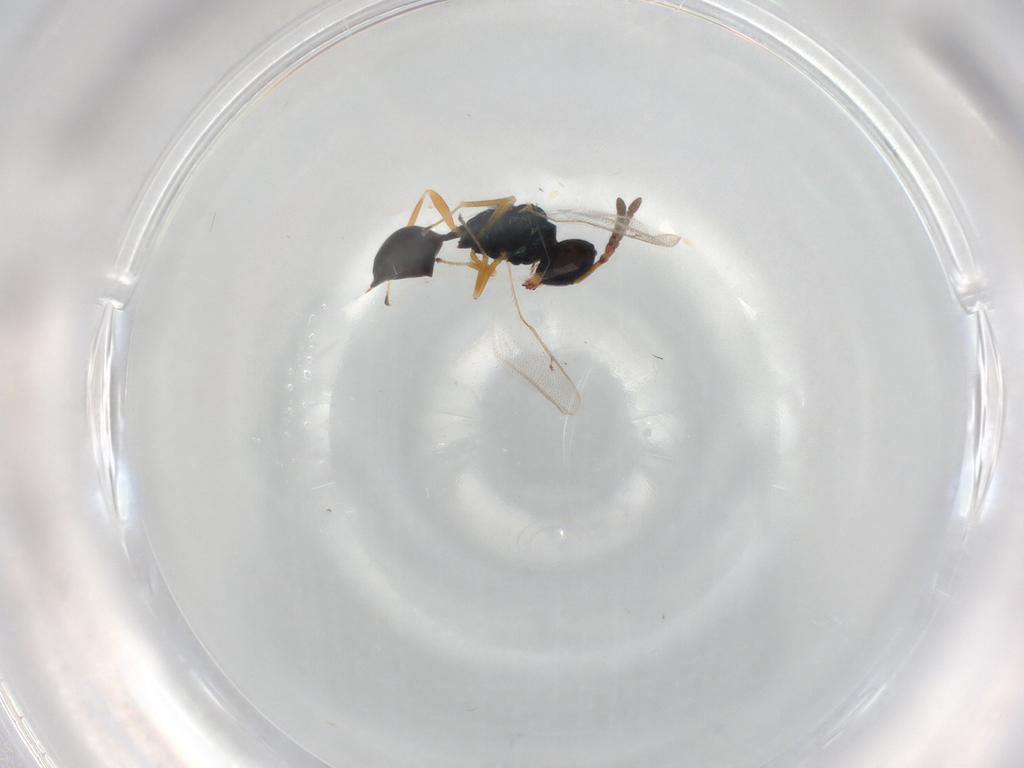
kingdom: Animalia
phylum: Arthropoda
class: Insecta
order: Hymenoptera
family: Pteromalidae
